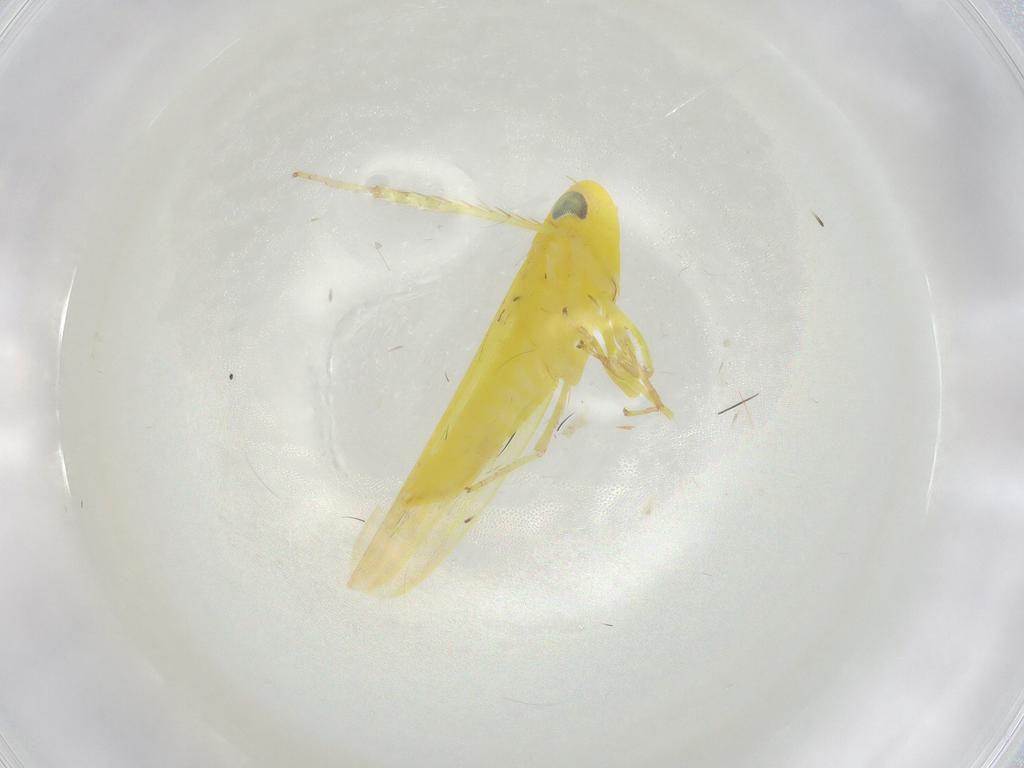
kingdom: Animalia
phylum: Arthropoda
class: Insecta
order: Hemiptera
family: Cicadellidae
